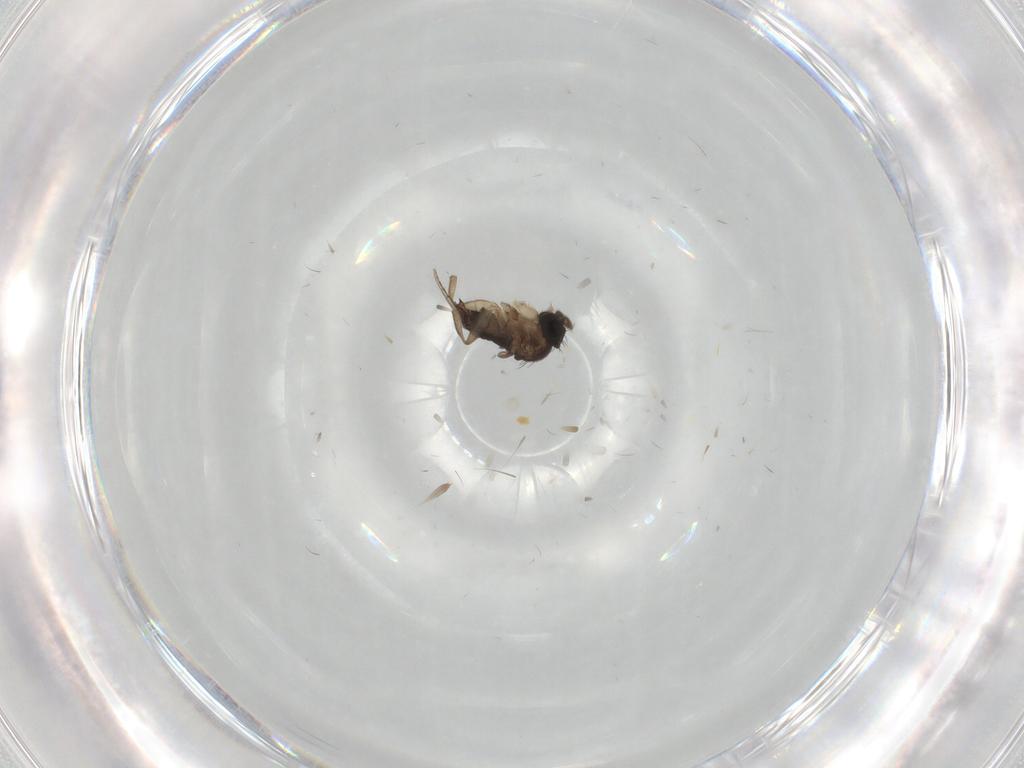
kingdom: Animalia
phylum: Arthropoda
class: Insecta
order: Diptera
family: Phoridae
